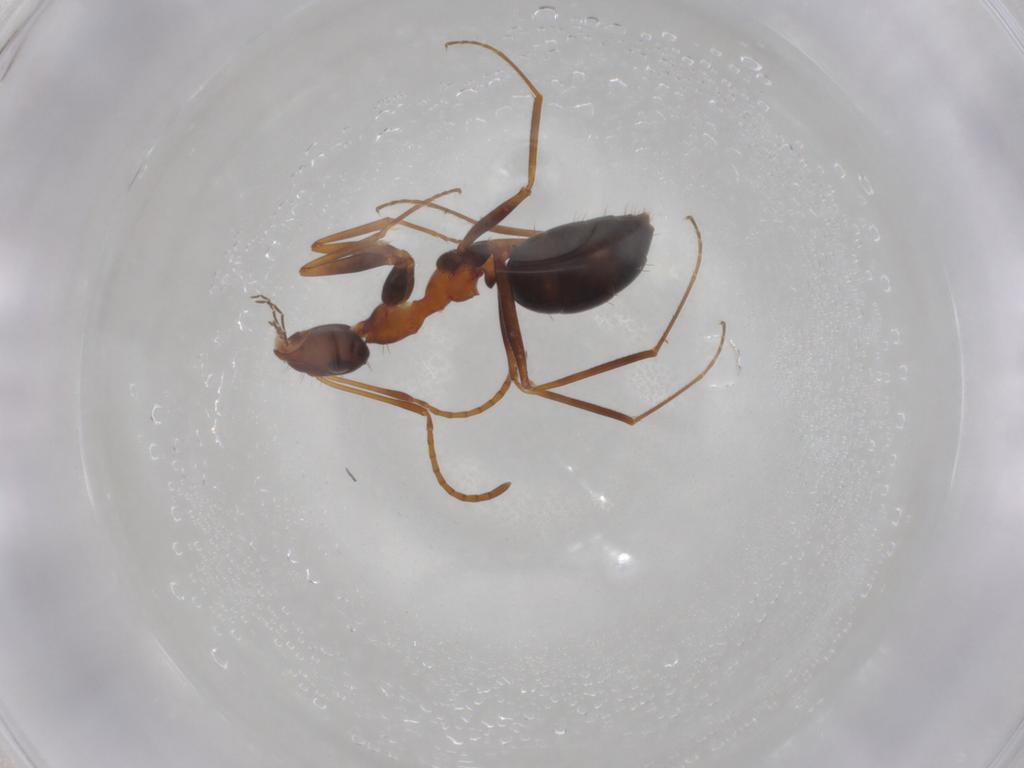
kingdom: Animalia
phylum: Arthropoda
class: Insecta
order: Hymenoptera
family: Formicidae
